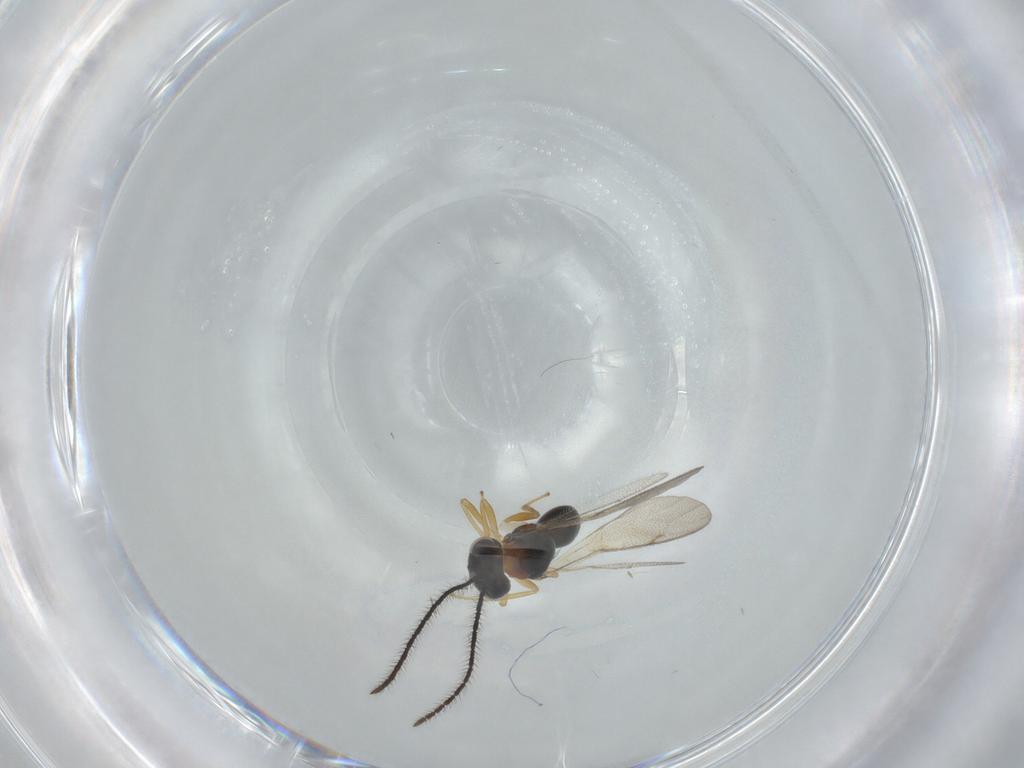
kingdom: Animalia
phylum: Arthropoda
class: Insecta
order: Hymenoptera
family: Diparidae
